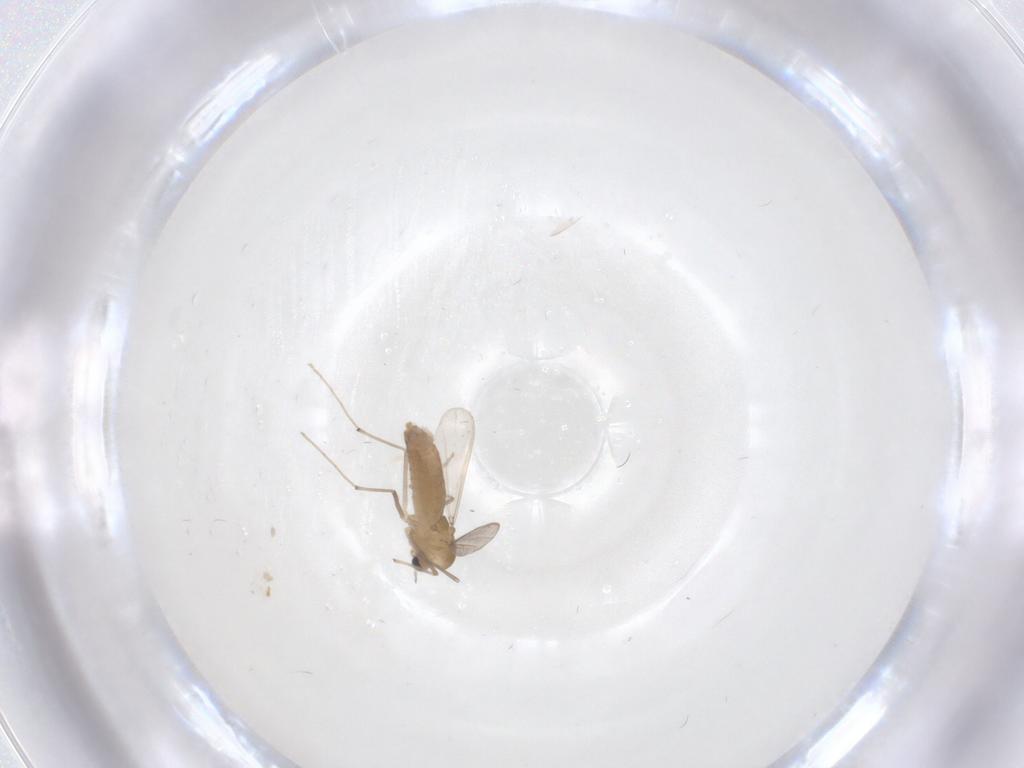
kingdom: Animalia
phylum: Arthropoda
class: Insecta
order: Diptera
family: Chironomidae
